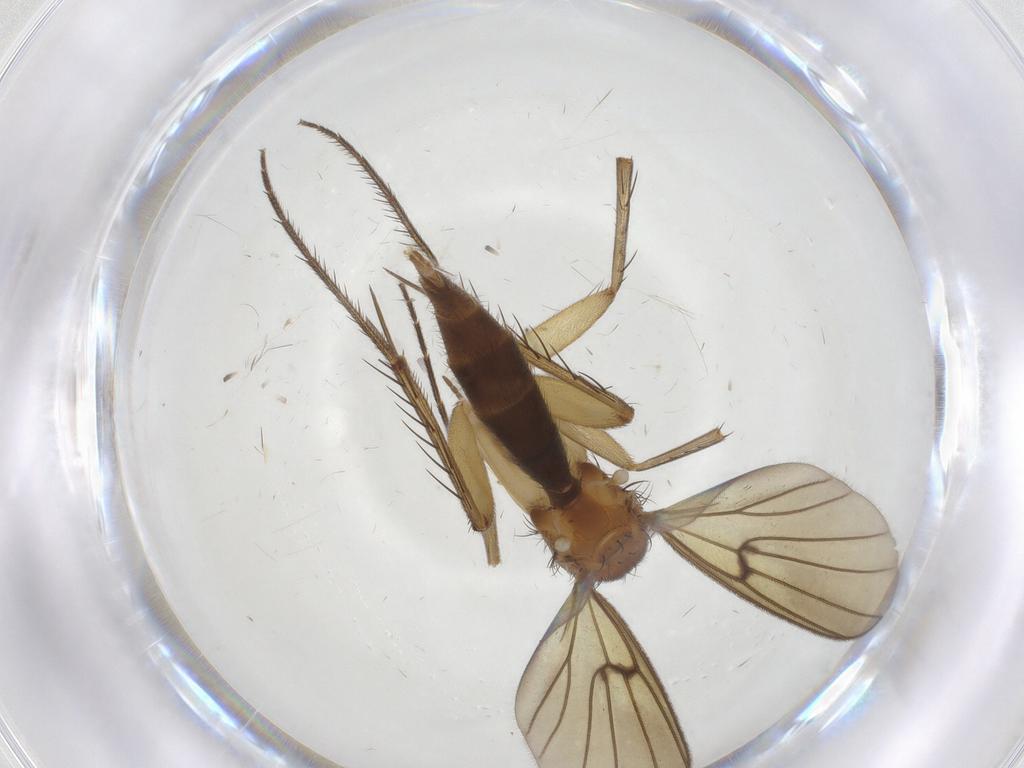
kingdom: Animalia
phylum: Arthropoda
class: Insecta
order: Diptera
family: Mycetophilidae
